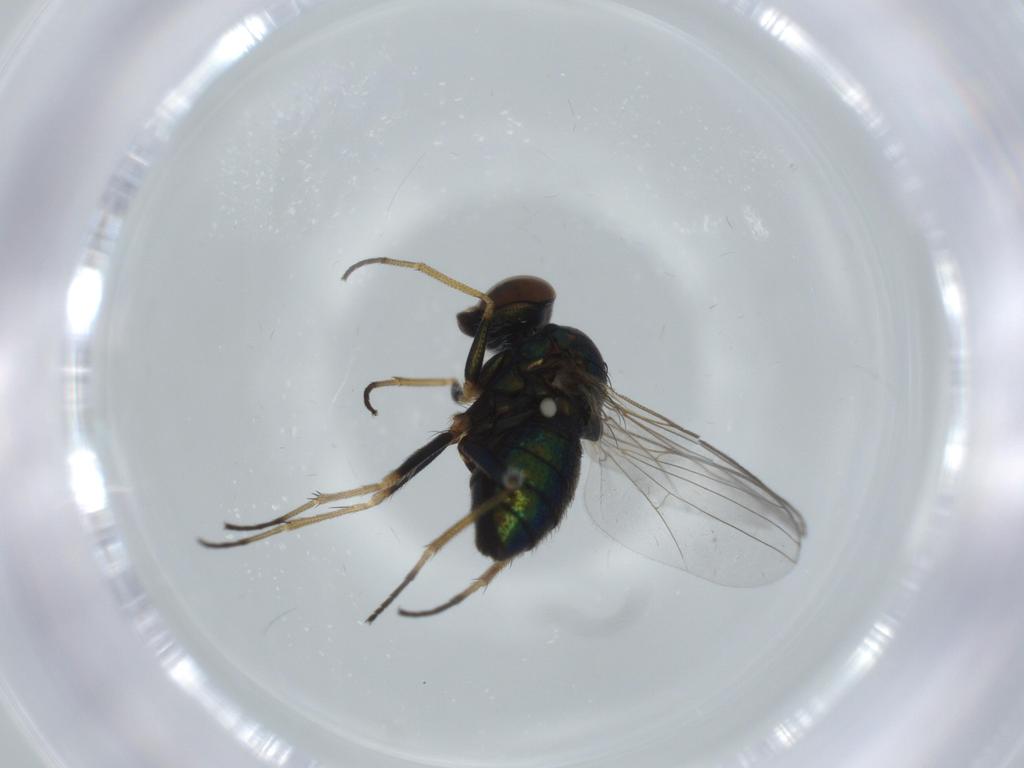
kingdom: Animalia
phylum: Arthropoda
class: Insecta
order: Diptera
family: Dolichopodidae
